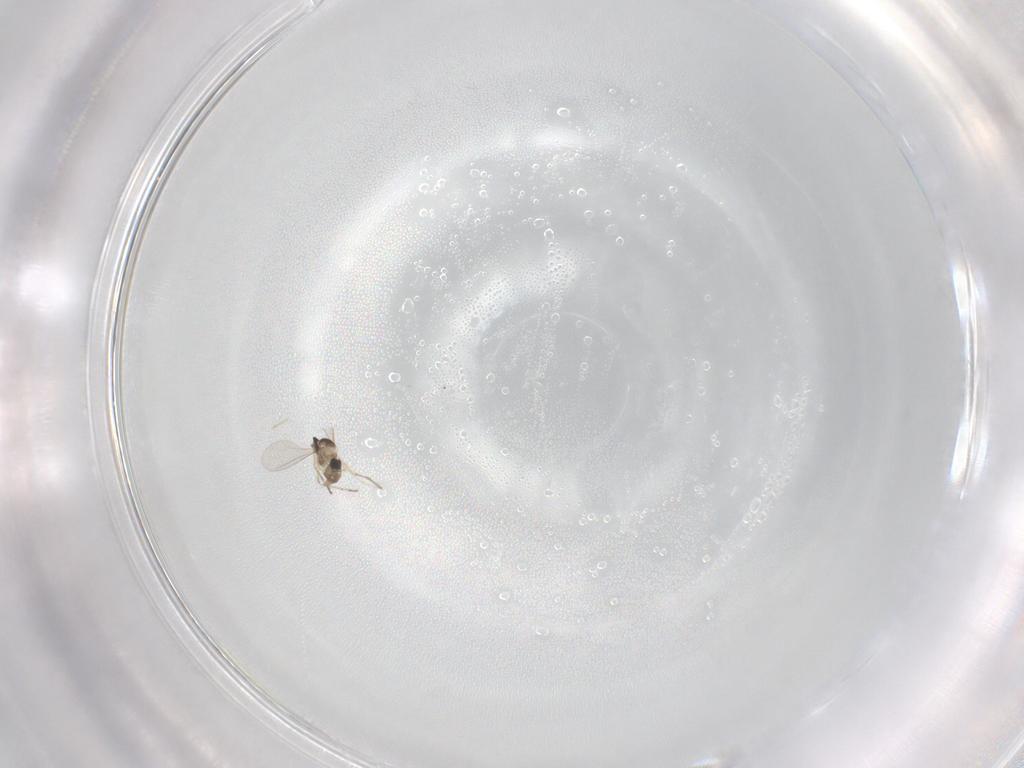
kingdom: Animalia
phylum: Arthropoda
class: Insecta
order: Diptera
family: Cecidomyiidae
